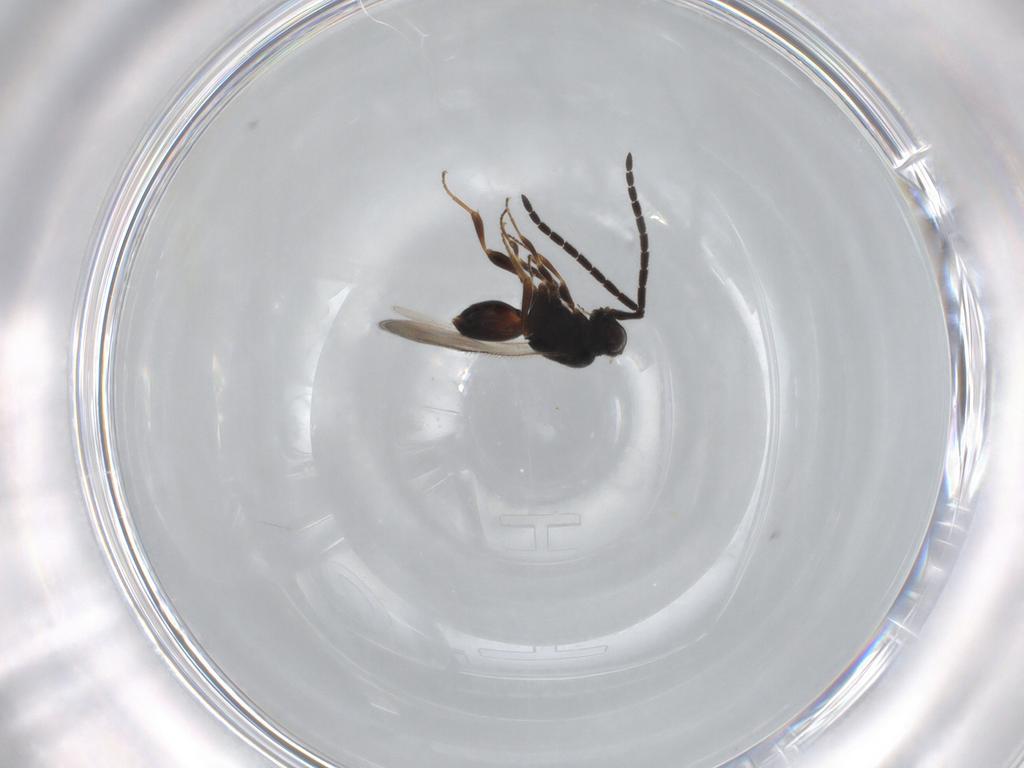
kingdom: Animalia
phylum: Arthropoda
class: Insecta
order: Hymenoptera
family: Ceraphronidae
